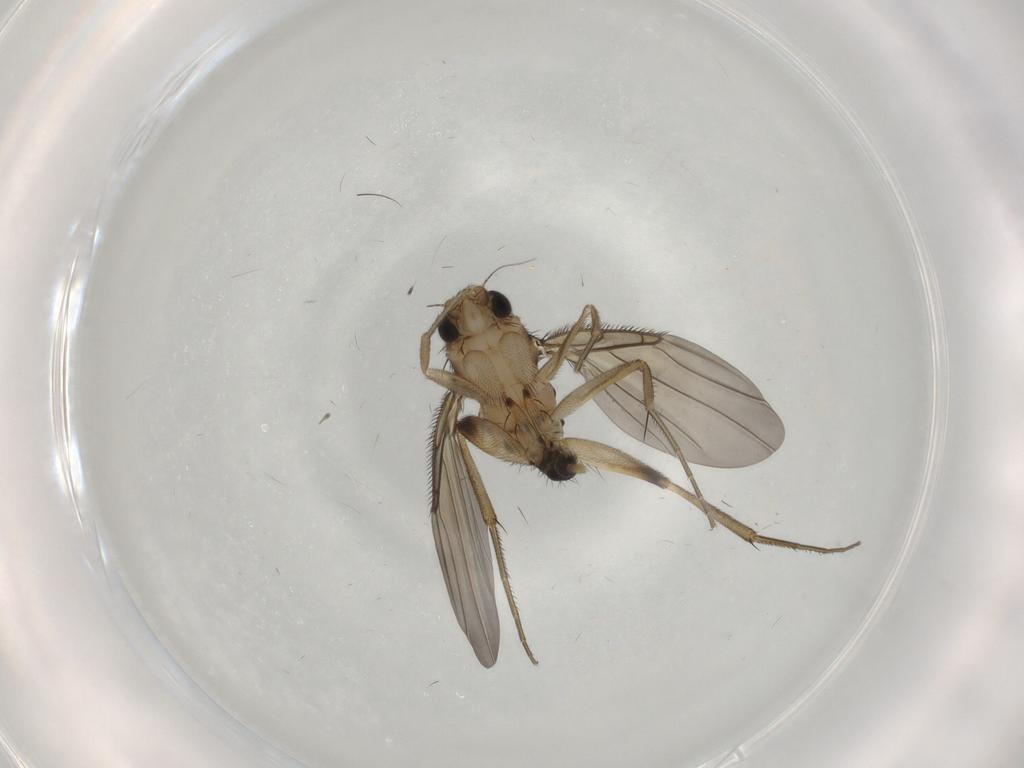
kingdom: Animalia
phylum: Arthropoda
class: Insecta
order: Diptera
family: Phoridae
